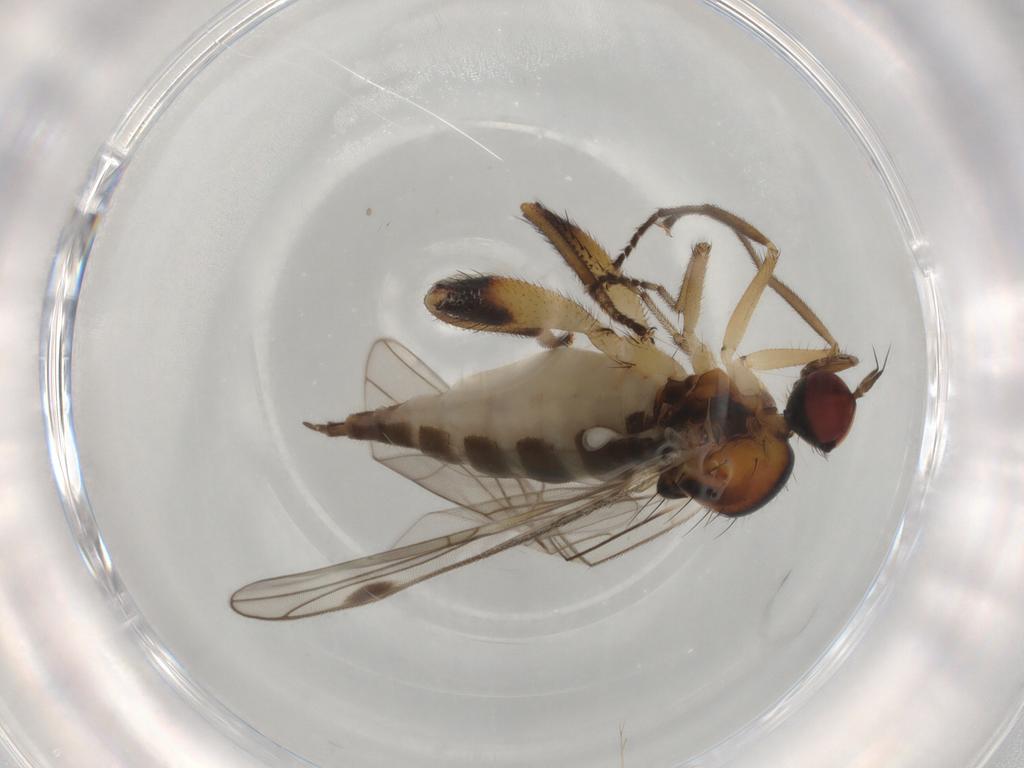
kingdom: Animalia
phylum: Arthropoda
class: Insecta
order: Diptera
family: Hybotidae
